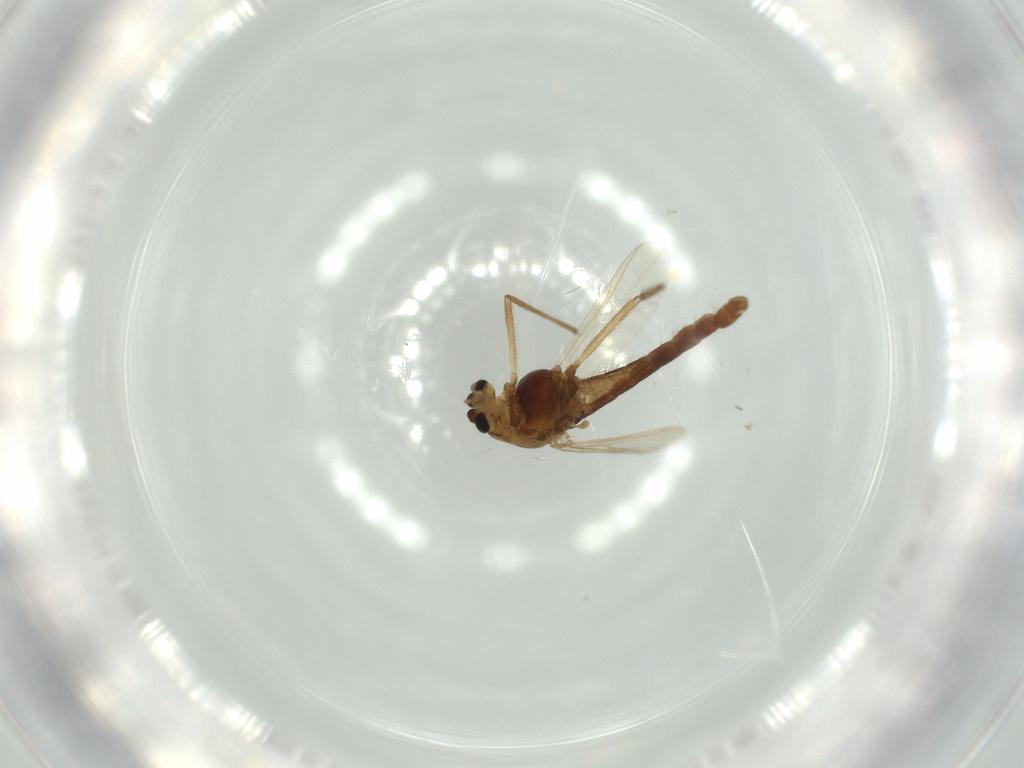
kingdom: Animalia
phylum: Arthropoda
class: Insecta
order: Diptera
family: Chironomidae
